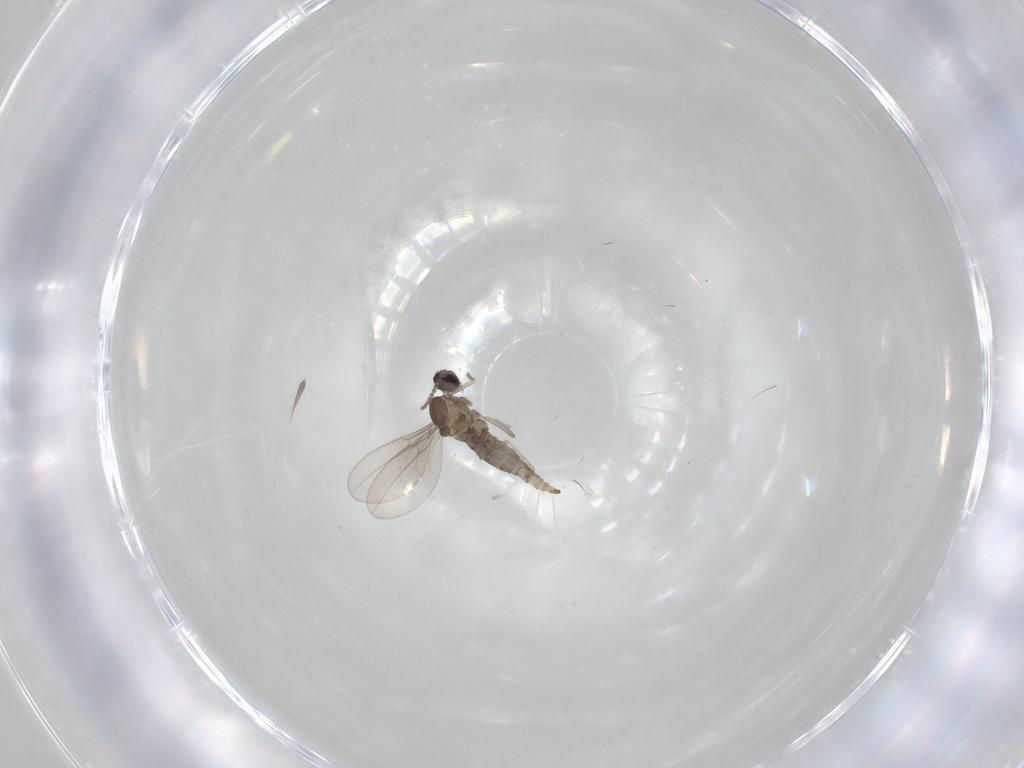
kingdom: Animalia
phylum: Arthropoda
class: Insecta
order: Diptera
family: Cecidomyiidae
